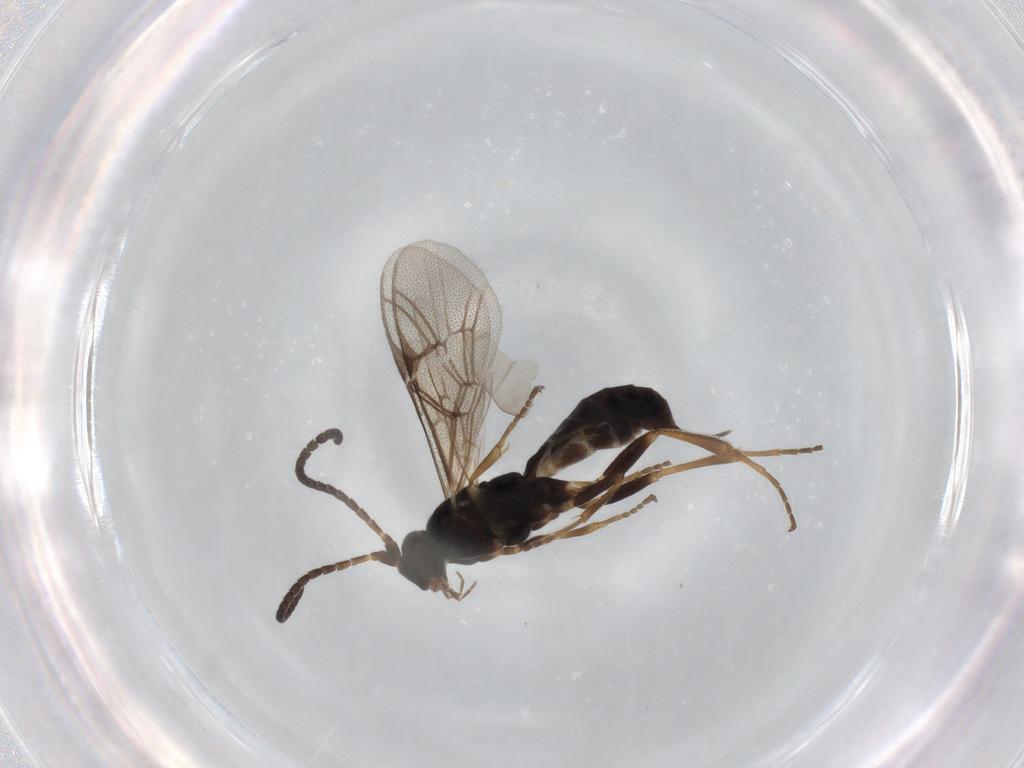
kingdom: Animalia
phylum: Arthropoda
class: Insecta
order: Hymenoptera
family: Ichneumonidae
